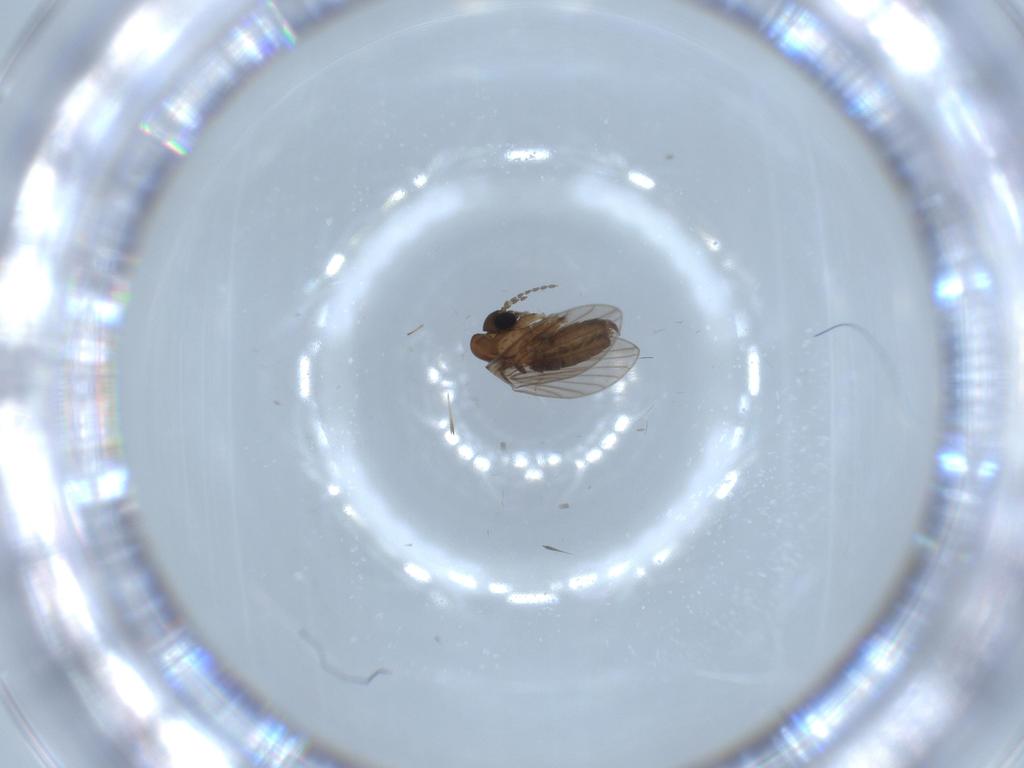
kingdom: Animalia
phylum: Arthropoda
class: Insecta
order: Diptera
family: Psychodidae
